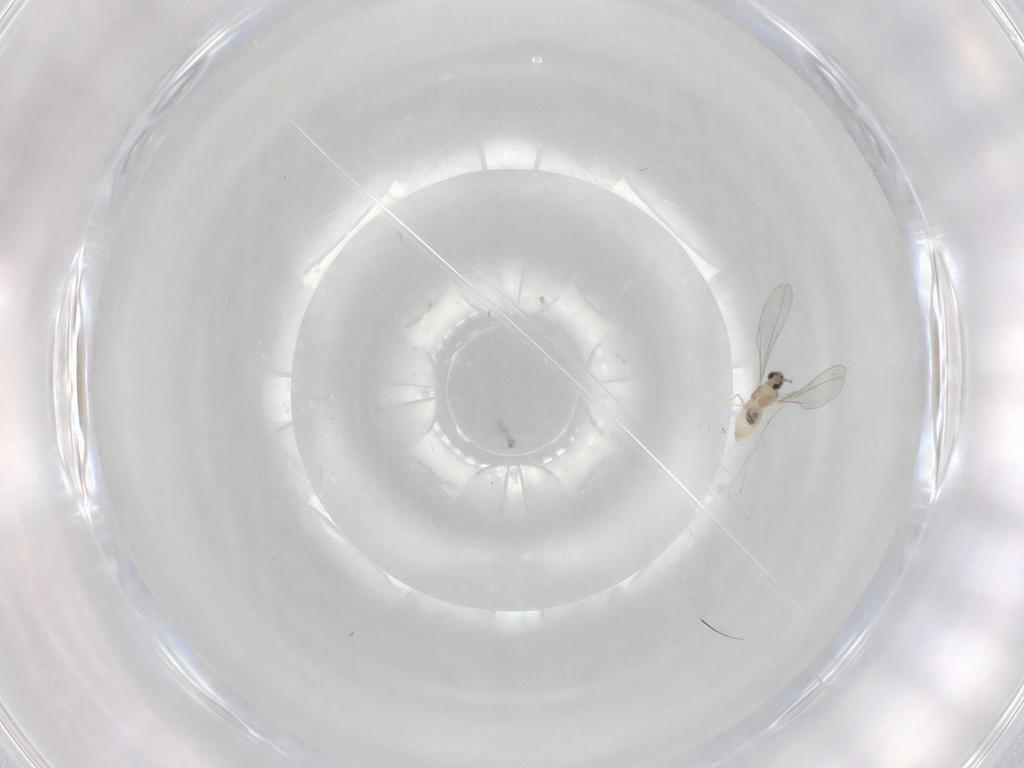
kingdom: Animalia
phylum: Arthropoda
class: Insecta
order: Diptera
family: Cecidomyiidae
